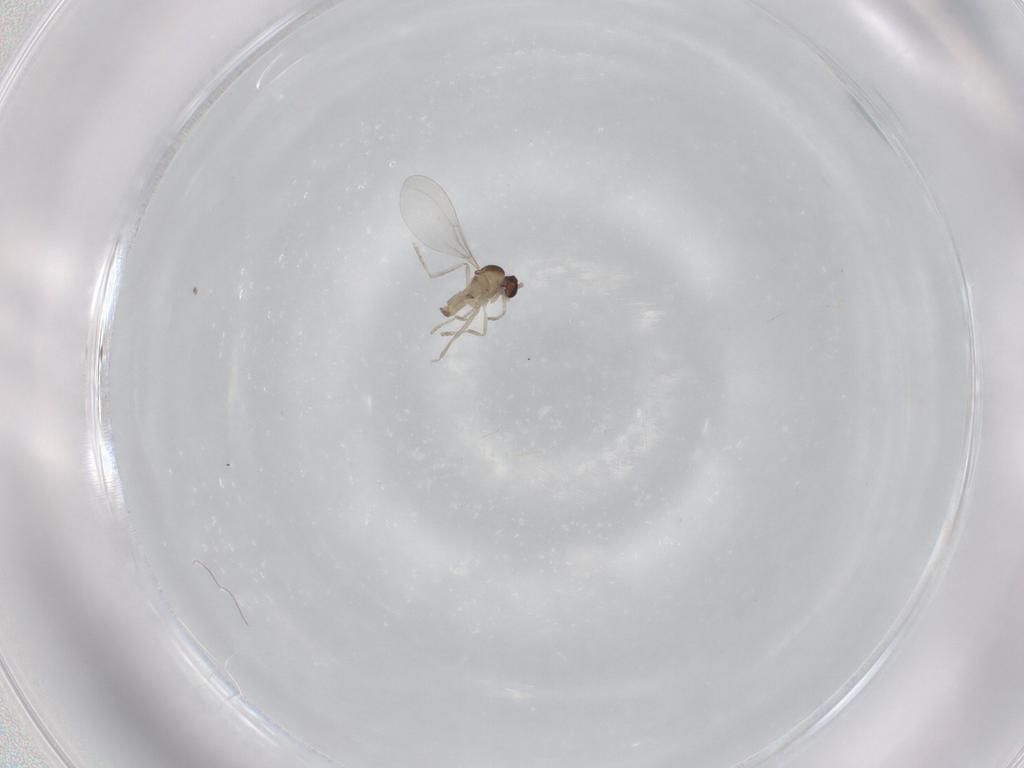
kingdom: Animalia
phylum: Arthropoda
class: Insecta
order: Diptera
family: Cecidomyiidae
